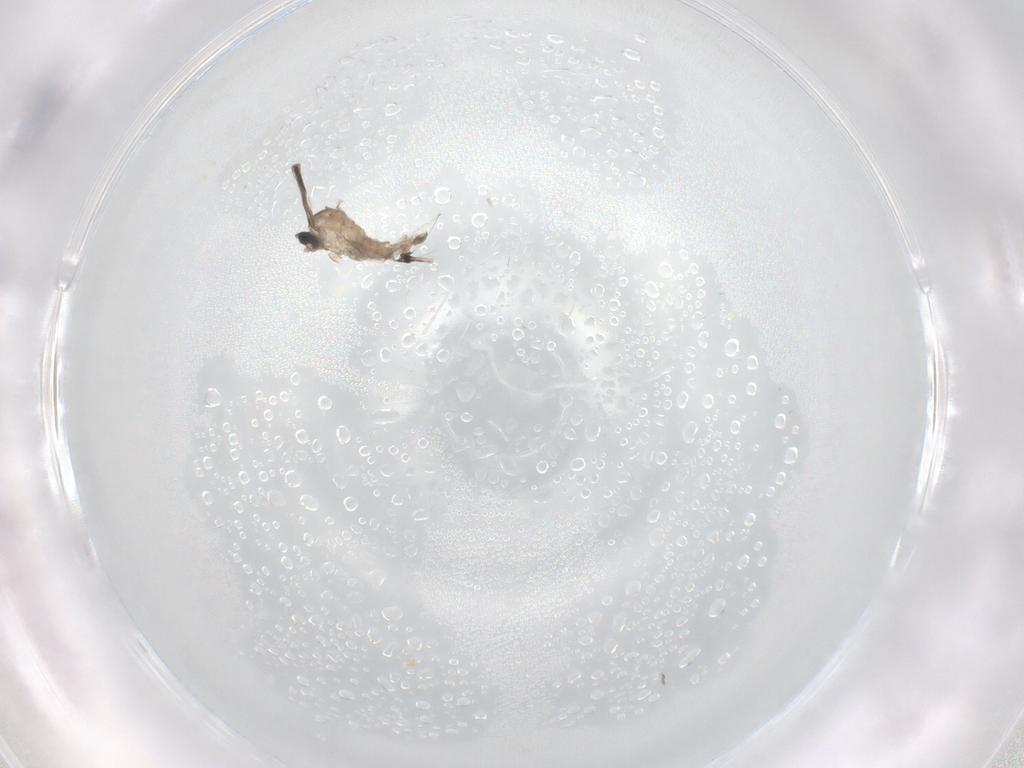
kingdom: Animalia
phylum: Arthropoda
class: Insecta
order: Diptera
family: Cecidomyiidae
